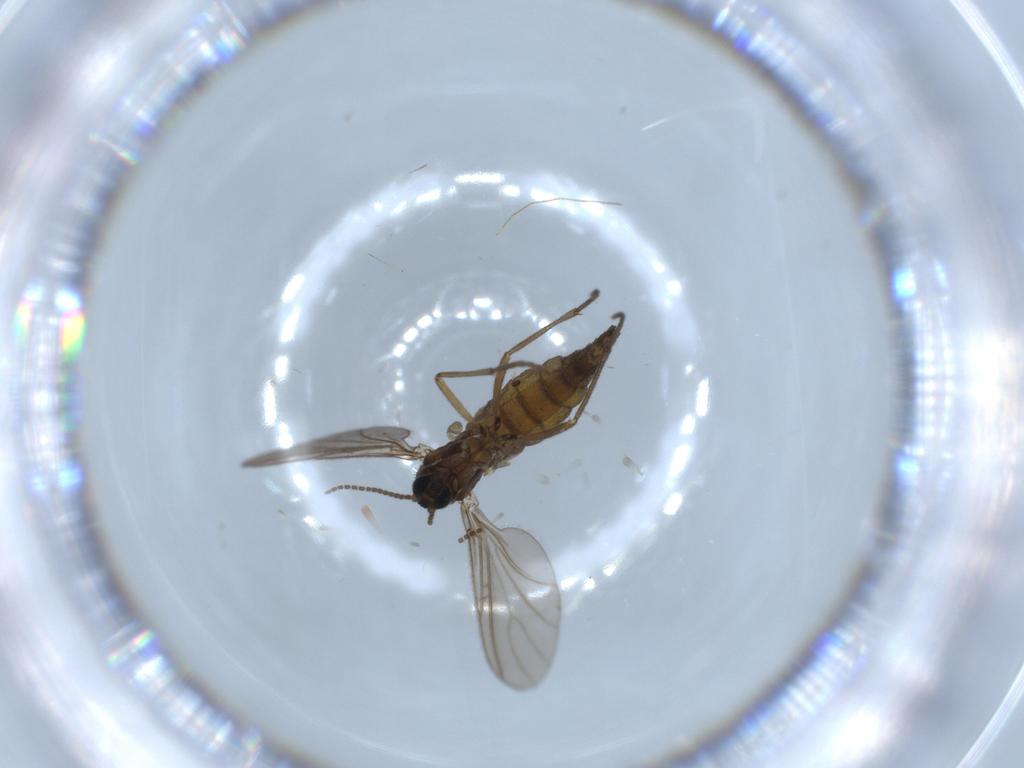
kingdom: Animalia
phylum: Arthropoda
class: Insecta
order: Diptera
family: Sciaridae
